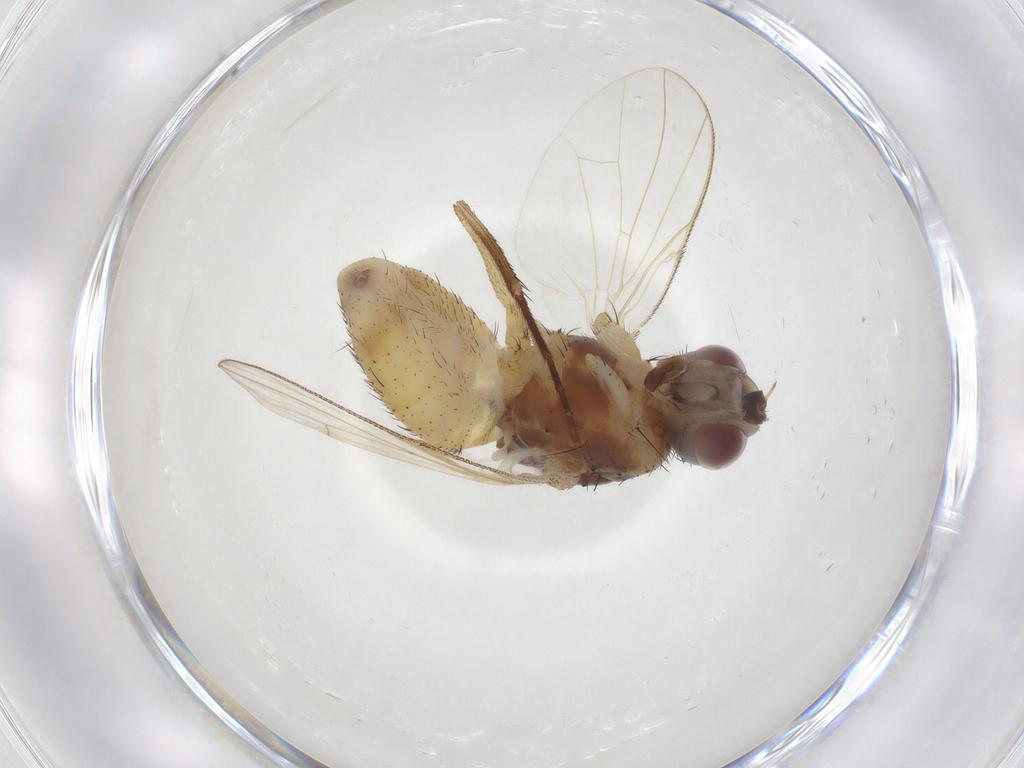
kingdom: Animalia
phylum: Arthropoda
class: Insecta
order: Diptera
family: Muscidae
